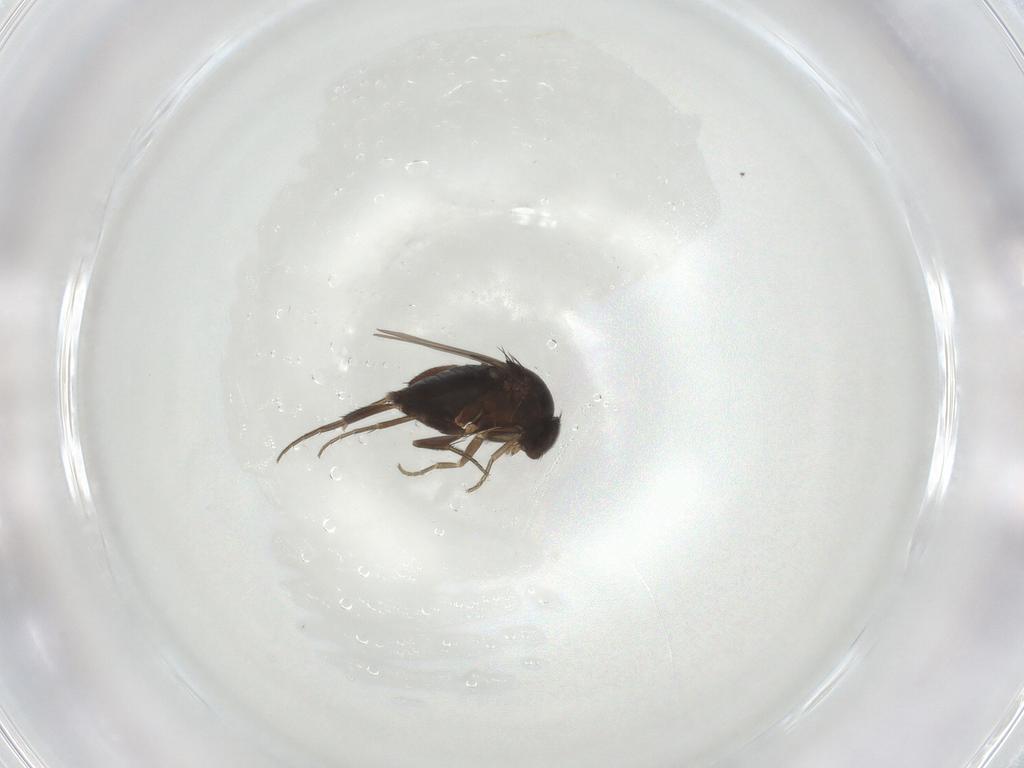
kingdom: Animalia
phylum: Arthropoda
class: Insecta
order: Diptera
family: Phoridae
